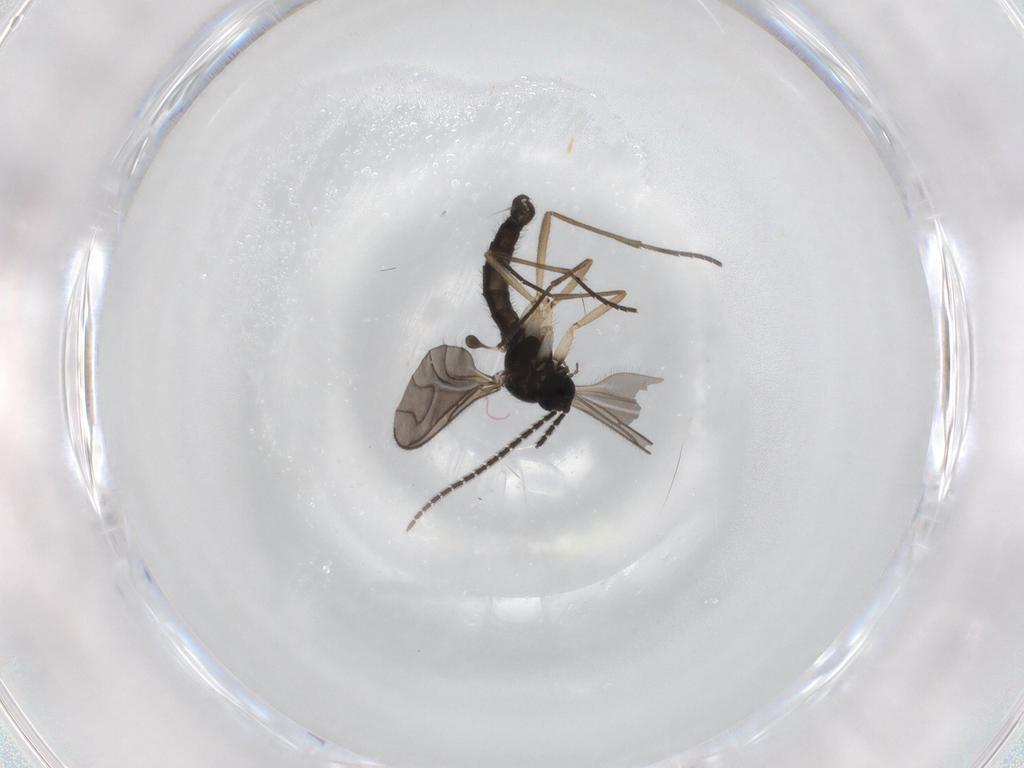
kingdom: Animalia
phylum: Arthropoda
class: Insecta
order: Diptera
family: Sciaridae
